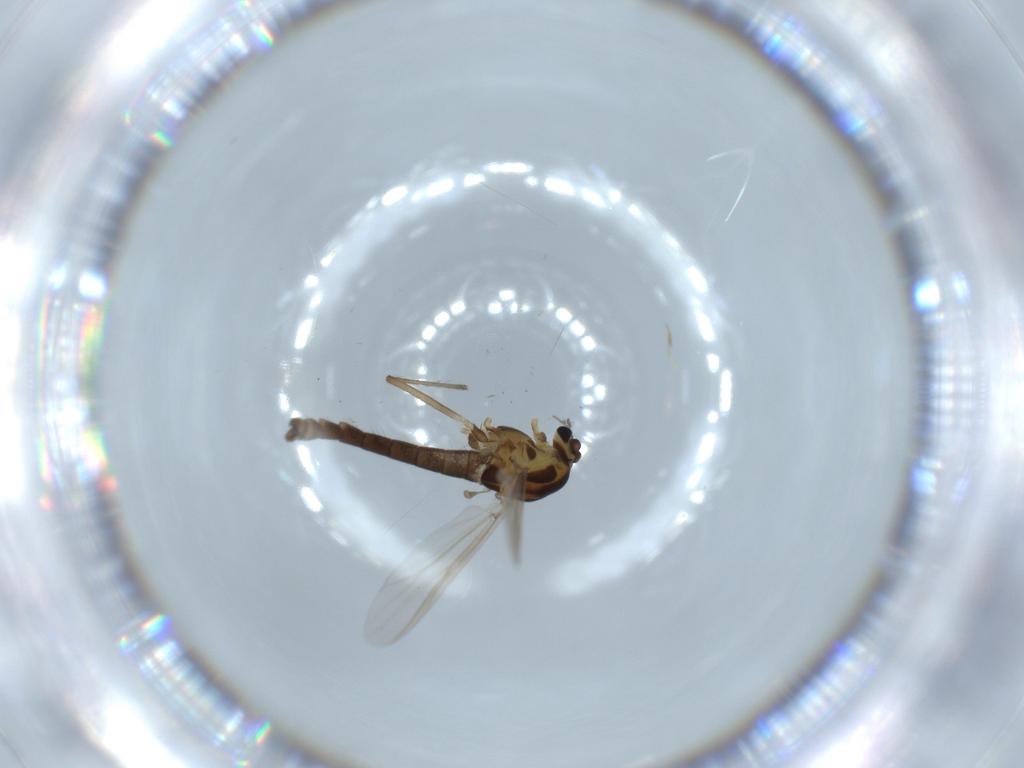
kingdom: Animalia
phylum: Arthropoda
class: Insecta
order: Diptera
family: Chironomidae
